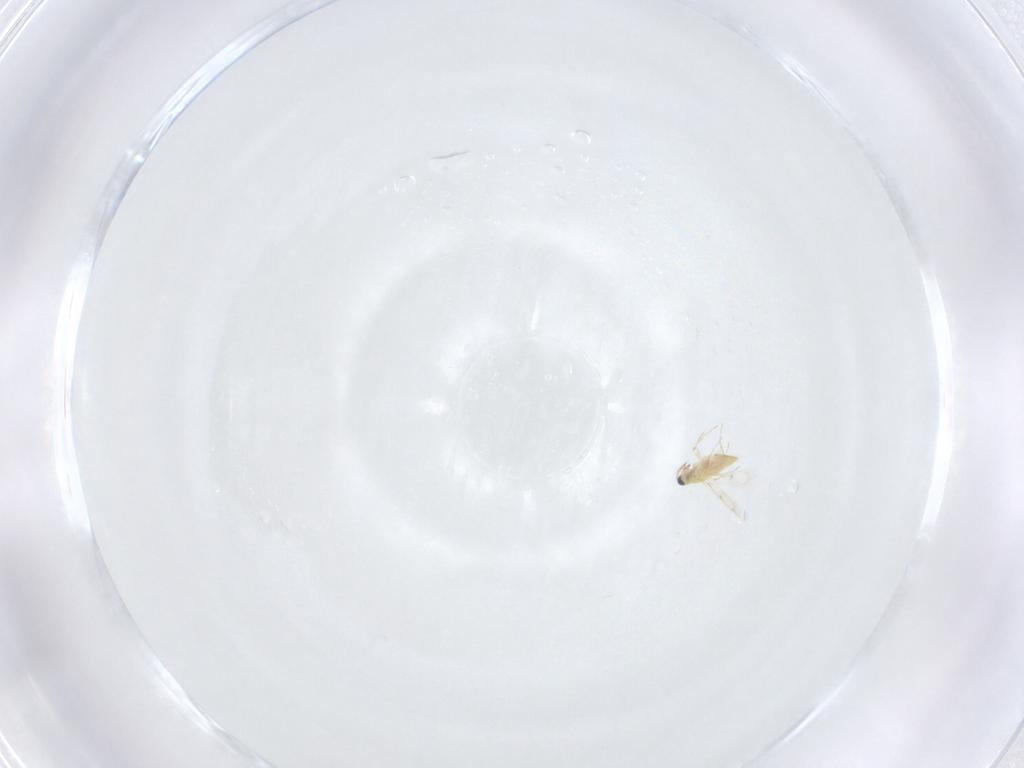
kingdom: Animalia
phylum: Arthropoda
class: Insecta
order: Hymenoptera
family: Trichogrammatidae
